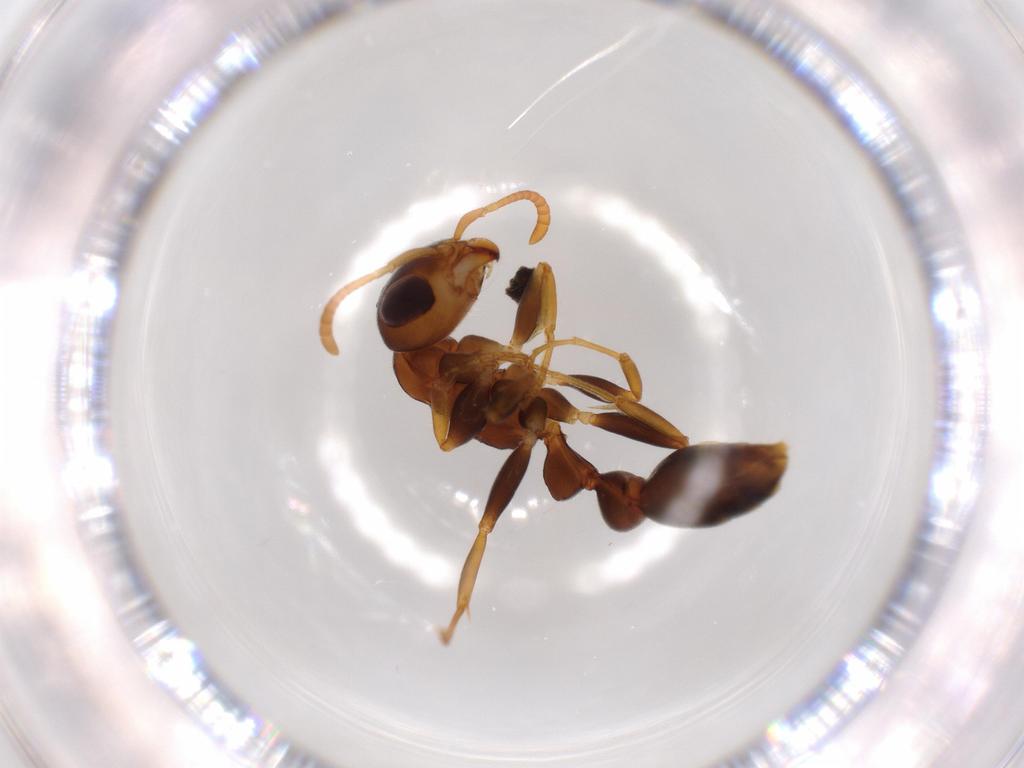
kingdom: Animalia
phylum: Arthropoda
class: Insecta
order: Hymenoptera
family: Formicidae
